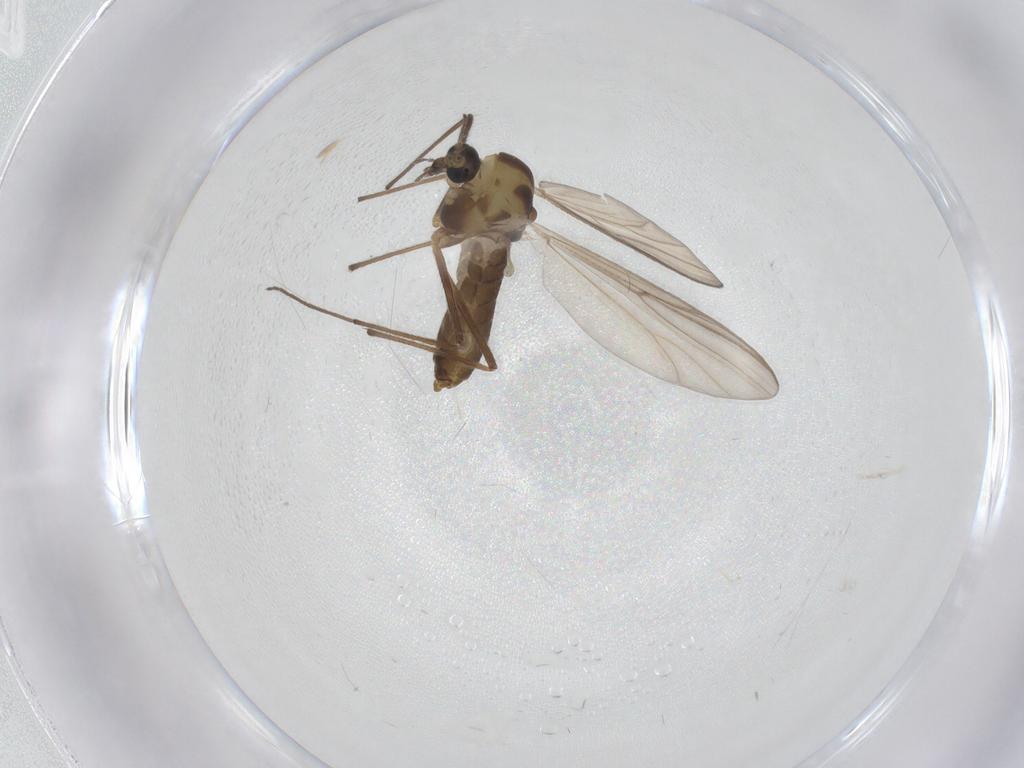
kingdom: Animalia
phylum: Arthropoda
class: Insecta
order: Diptera
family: Chironomidae
